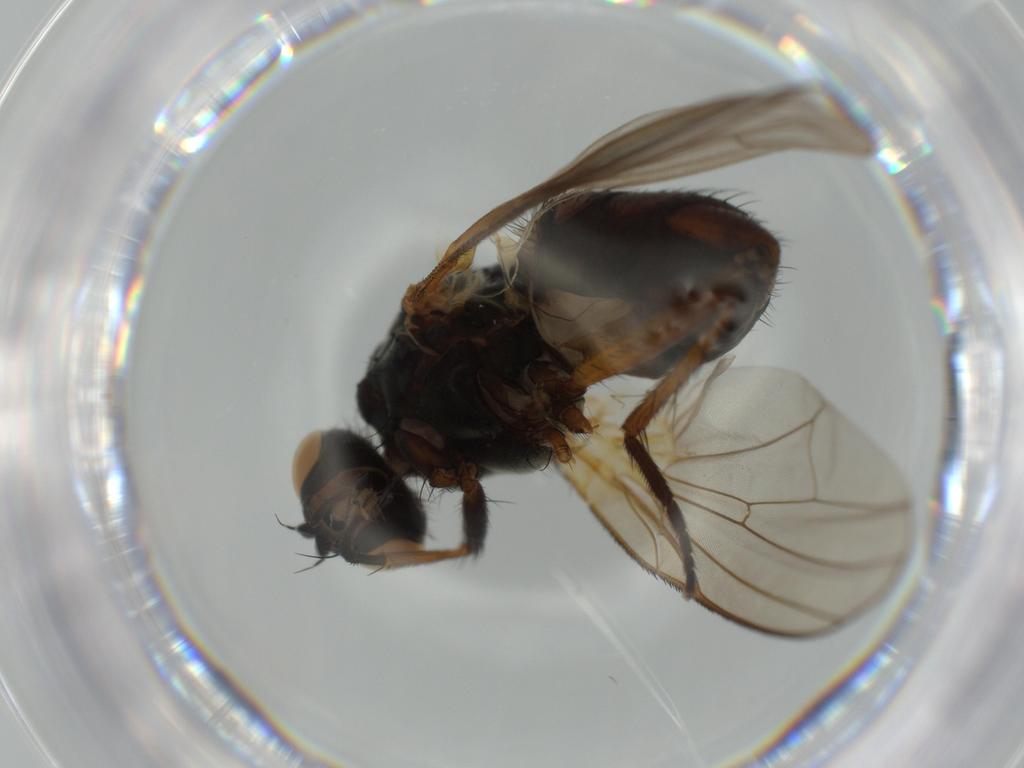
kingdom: Animalia
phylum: Arthropoda
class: Insecta
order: Diptera
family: Anthomyiidae
